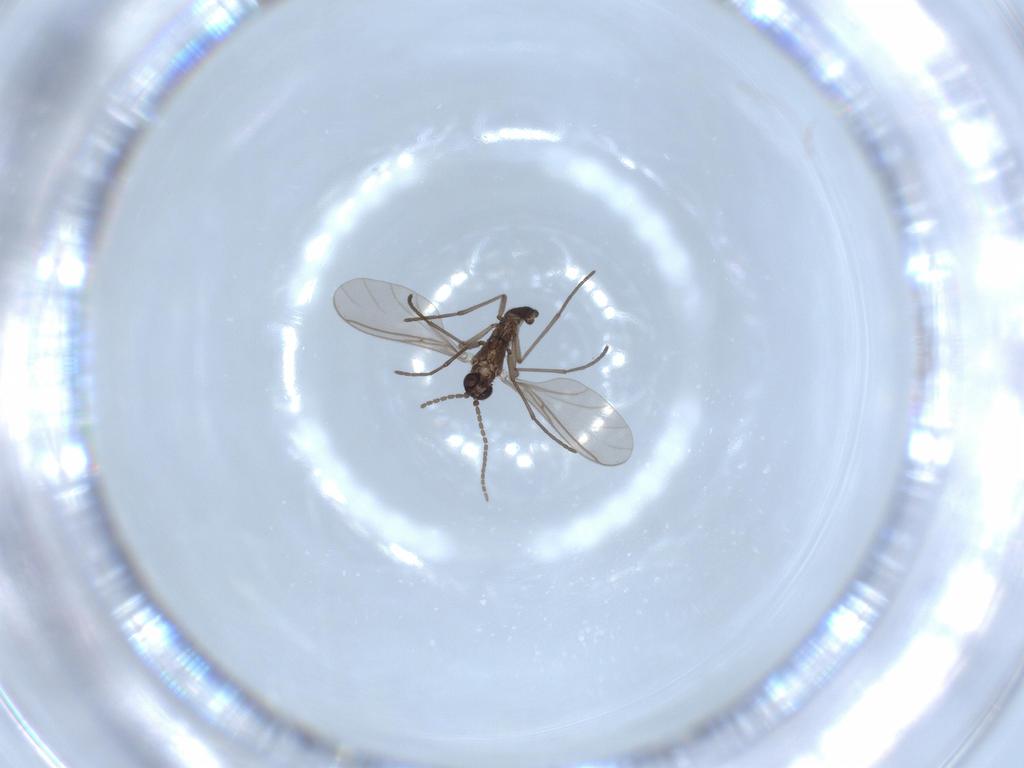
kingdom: Animalia
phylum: Arthropoda
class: Insecta
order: Diptera
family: Sciaridae
